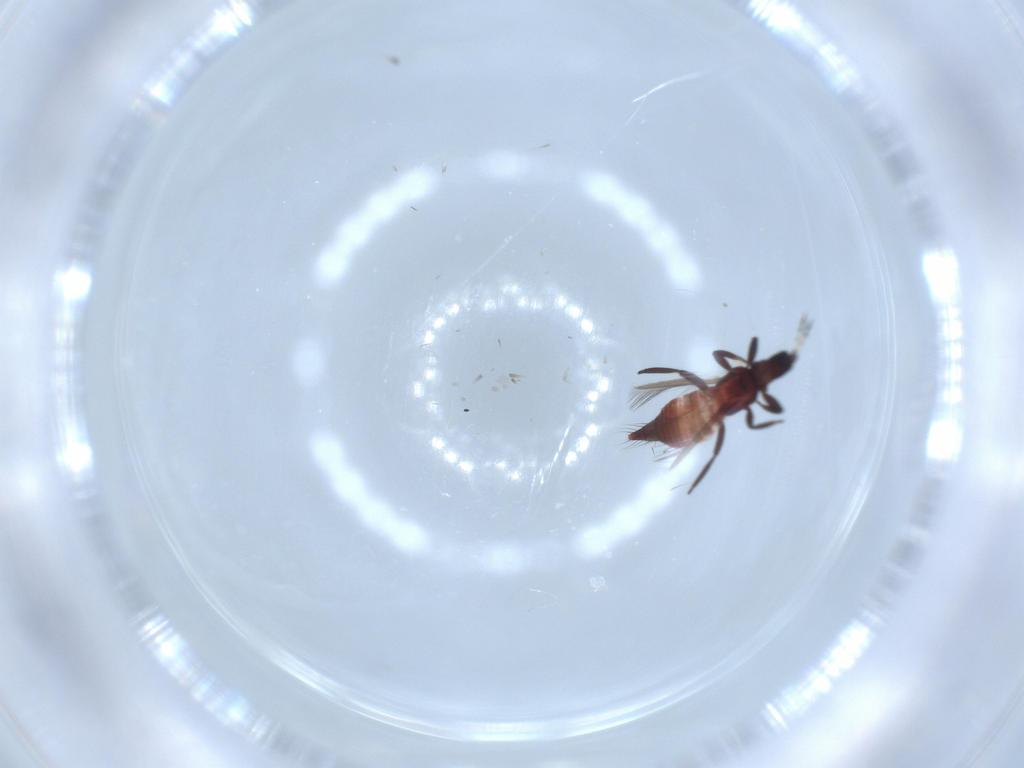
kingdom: Animalia
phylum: Arthropoda
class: Insecta
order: Thysanoptera
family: Aeolothripidae
